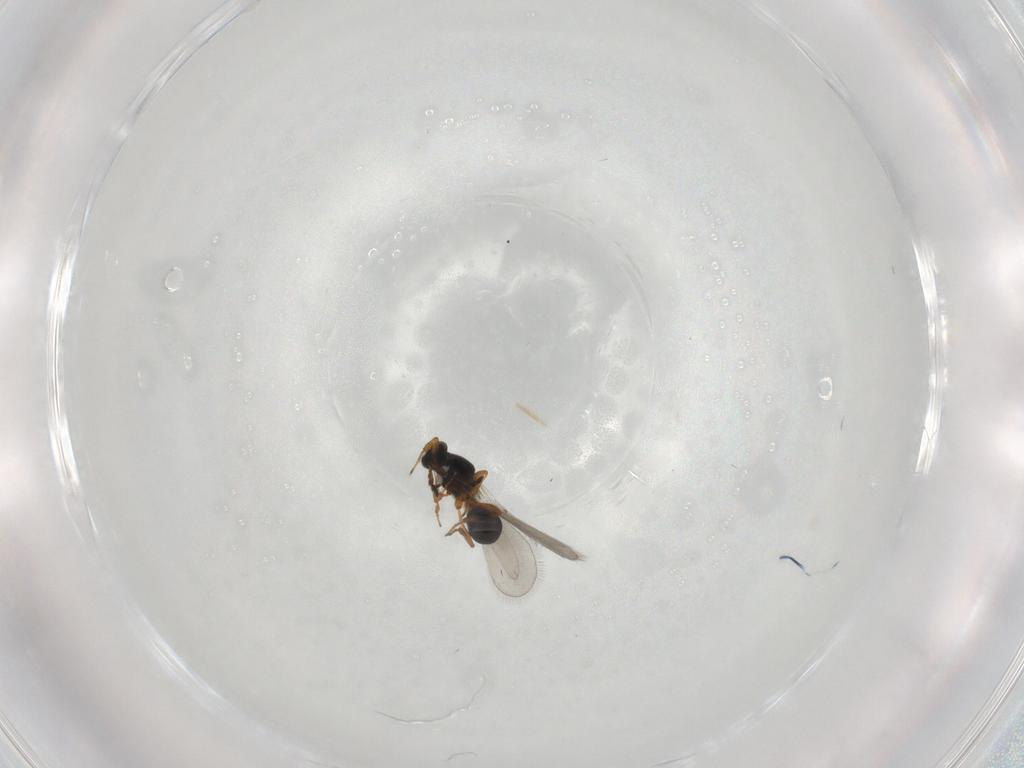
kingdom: Animalia
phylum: Arthropoda
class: Insecta
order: Hymenoptera
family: Platygastridae
